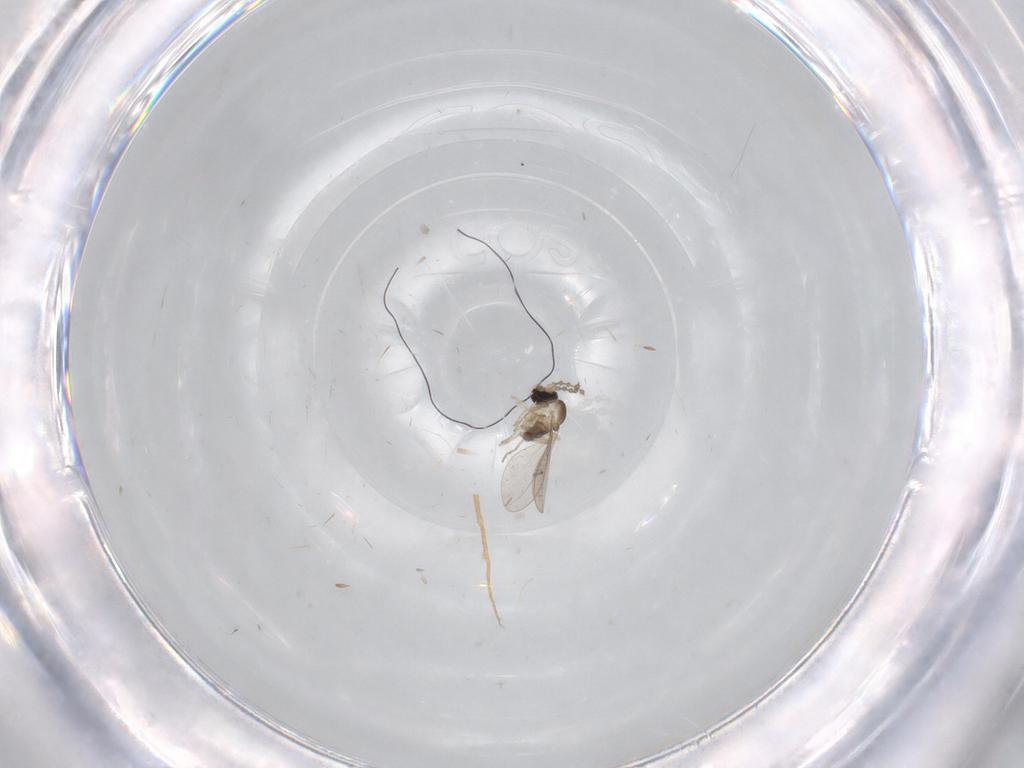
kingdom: Animalia
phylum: Arthropoda
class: Insecta
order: Diptera
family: Cecidomyiidae
